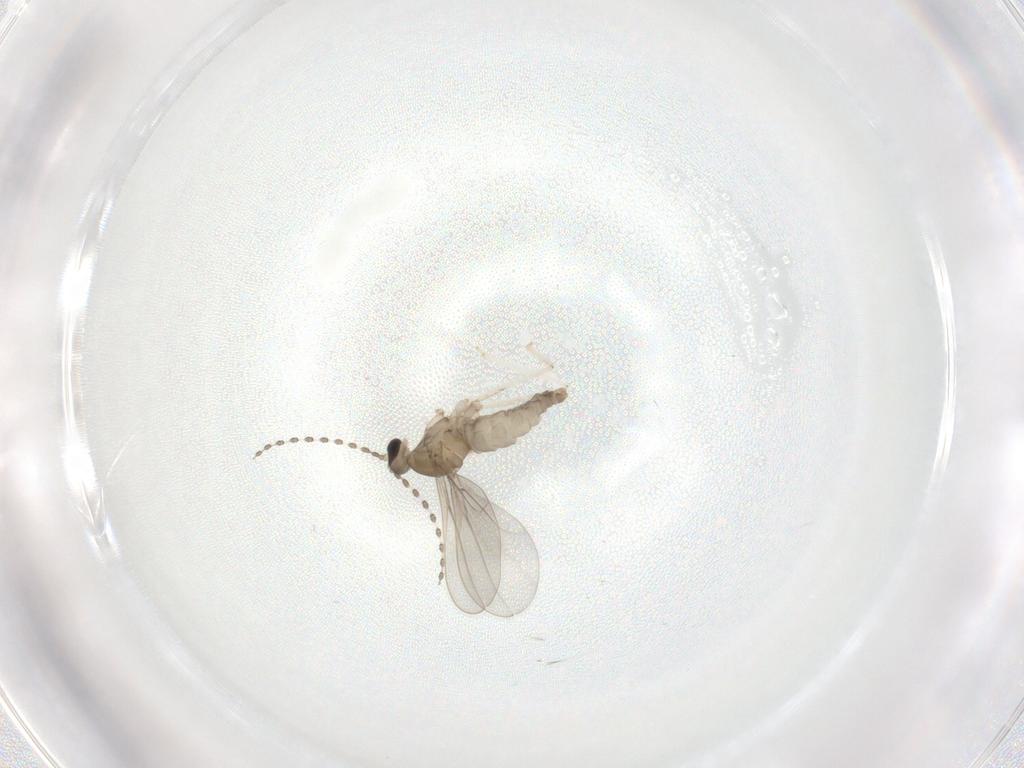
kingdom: Animalia
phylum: Arthropoda
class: Insecta
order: Diptera
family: Cecidomyiidae
